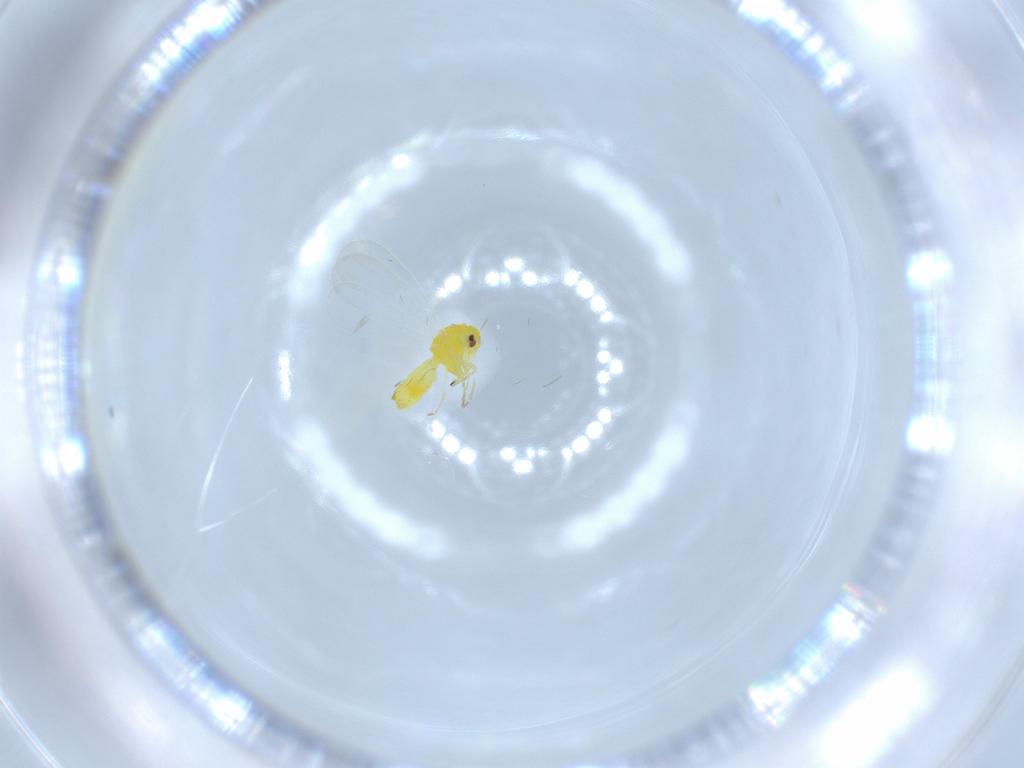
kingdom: Animalia
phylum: Arthropoda
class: Insecta
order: Hemiptera
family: Aleyrodidae
